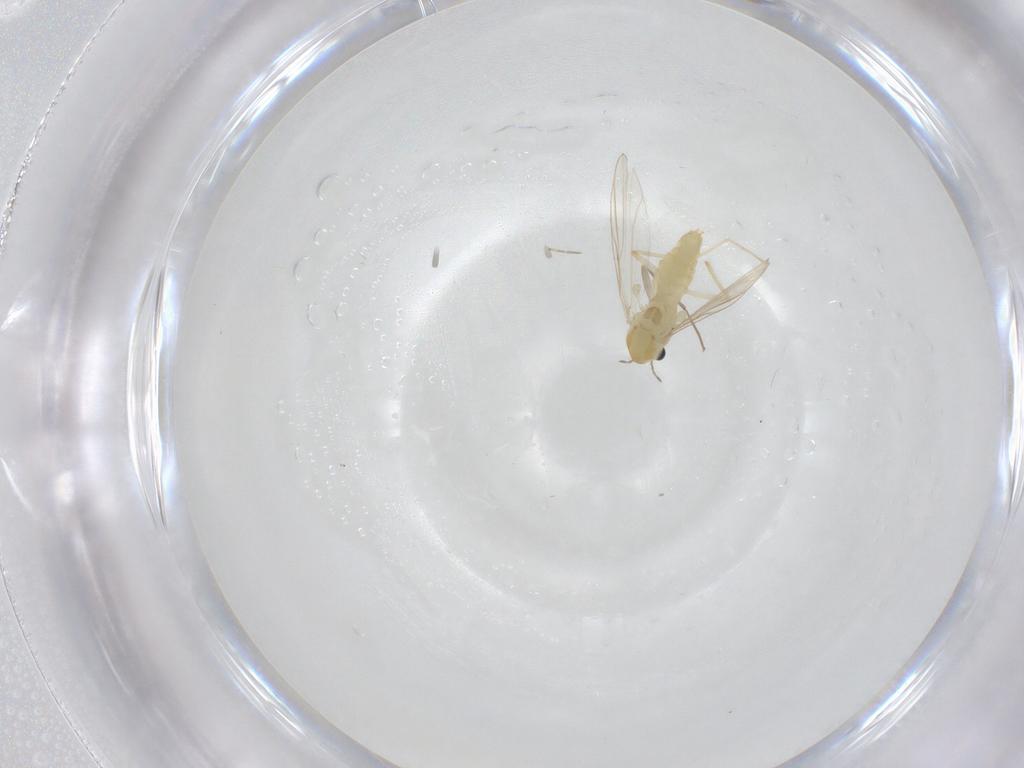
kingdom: Animalia
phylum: Arthropoda
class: Insecta
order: Diptera
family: Chironomidae
